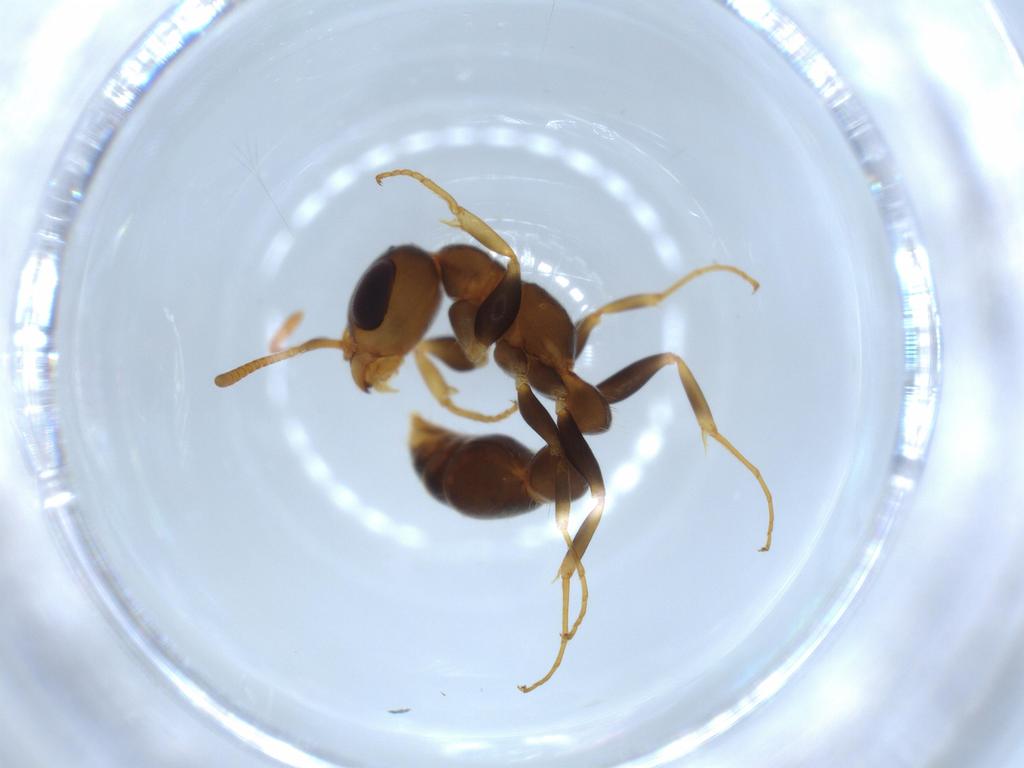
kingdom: Animalia
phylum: Arthropoda
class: Insecta
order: Hymenoptera
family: Formicidae
